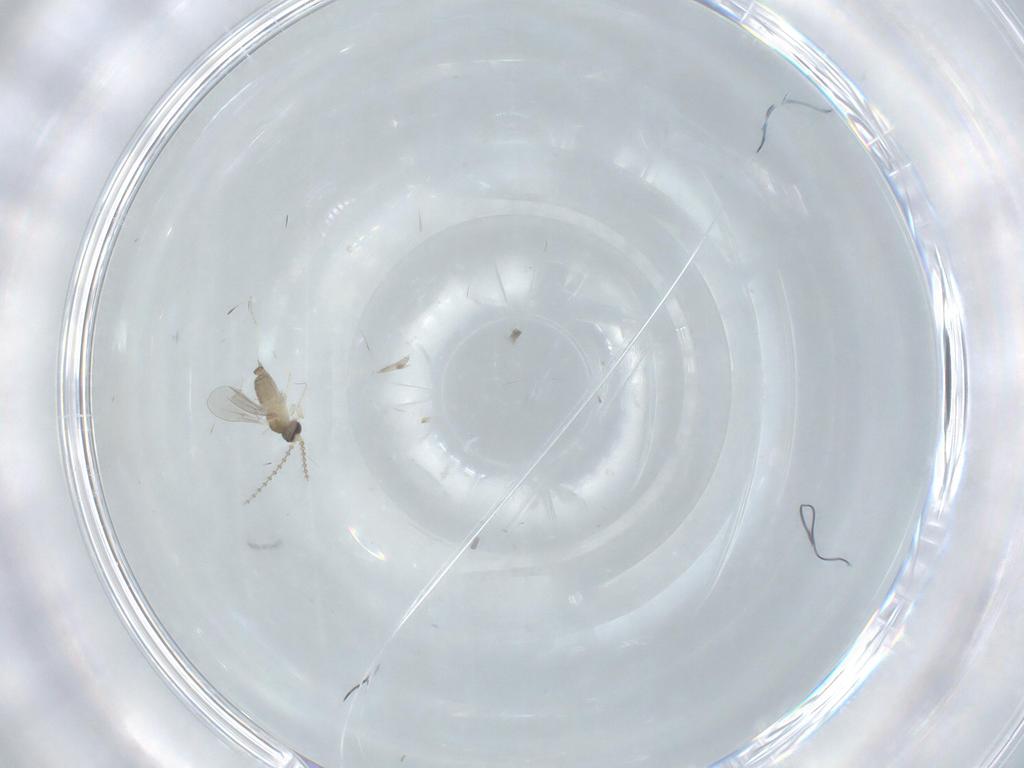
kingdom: Animalia
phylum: Arthropoda
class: Insecta
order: Diptera
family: Cecidomyiidae
